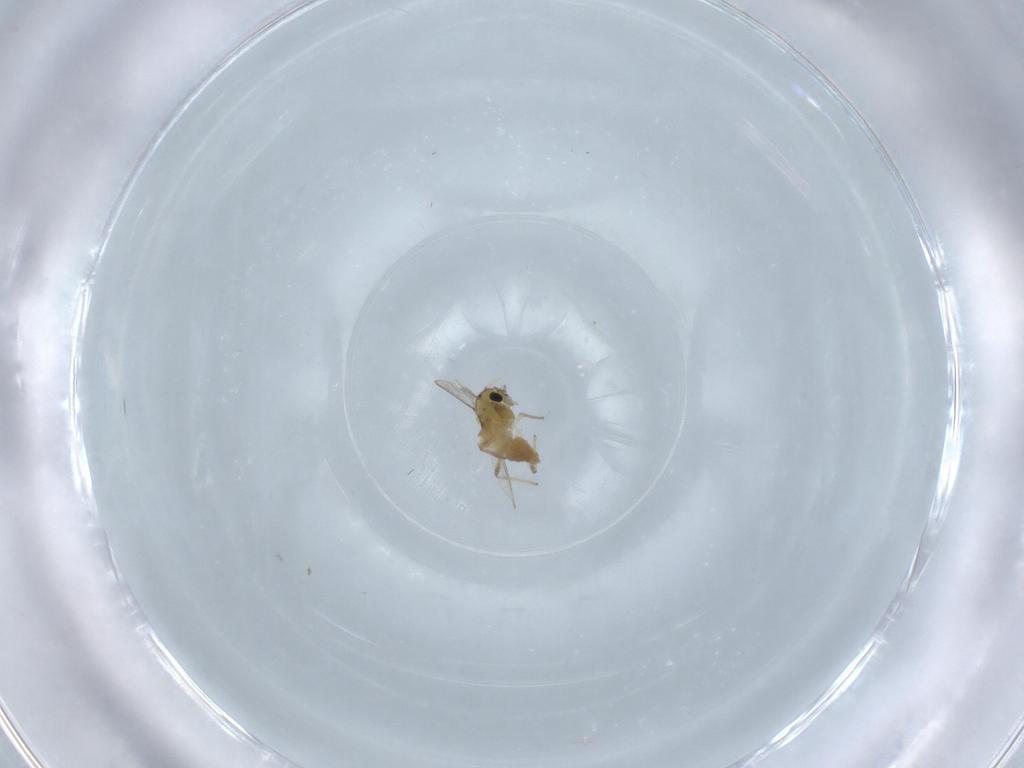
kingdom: Animalia
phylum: Arthropoda
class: Insecta
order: Diptera
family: Chironomidae
